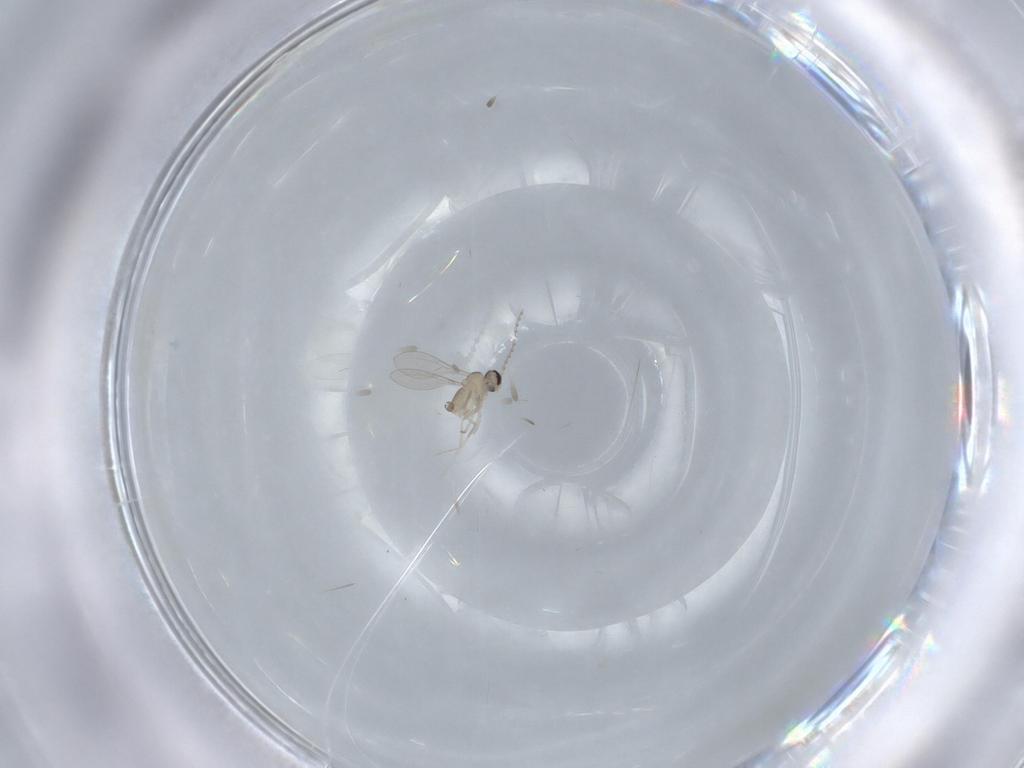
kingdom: Animalia
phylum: Arthropoda
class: Insecta
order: Diptera
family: Cecidomyiidae
